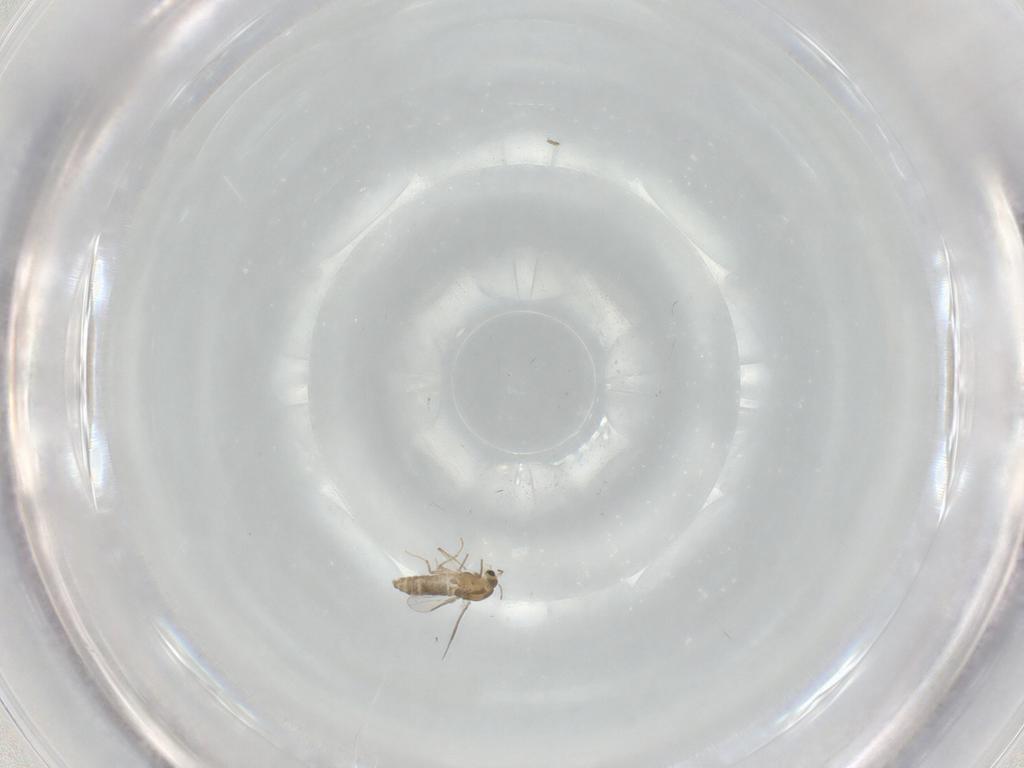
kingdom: Animalia
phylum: Arthropoda
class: Insecta
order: Diptera
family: Chironomidae
